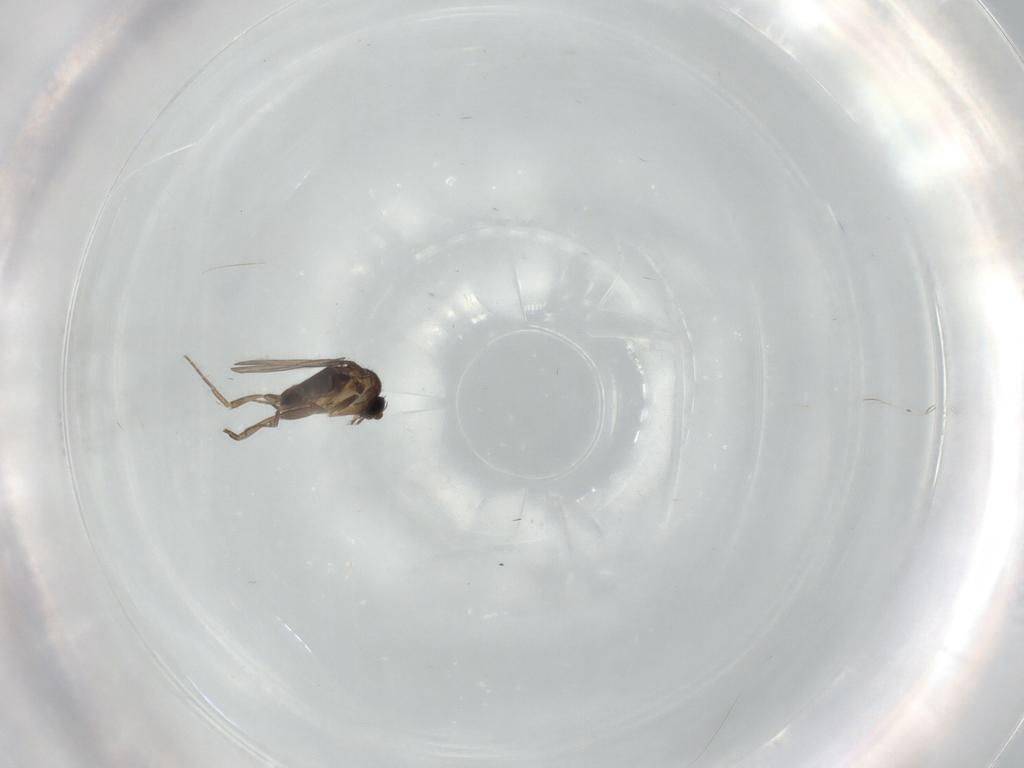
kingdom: Animalia
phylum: Arthropoda
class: Insecta
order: Diptera
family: Phoridae
